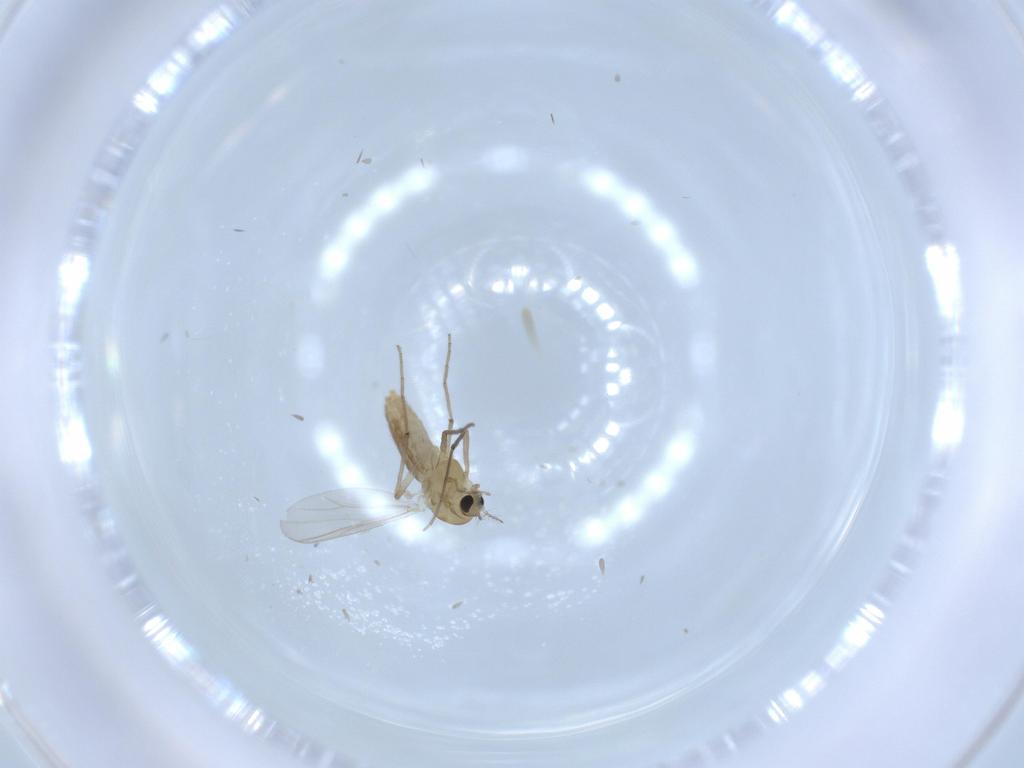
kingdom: Animalia
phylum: Arthropoda
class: Insecta
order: Diptera
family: Chironomidae
